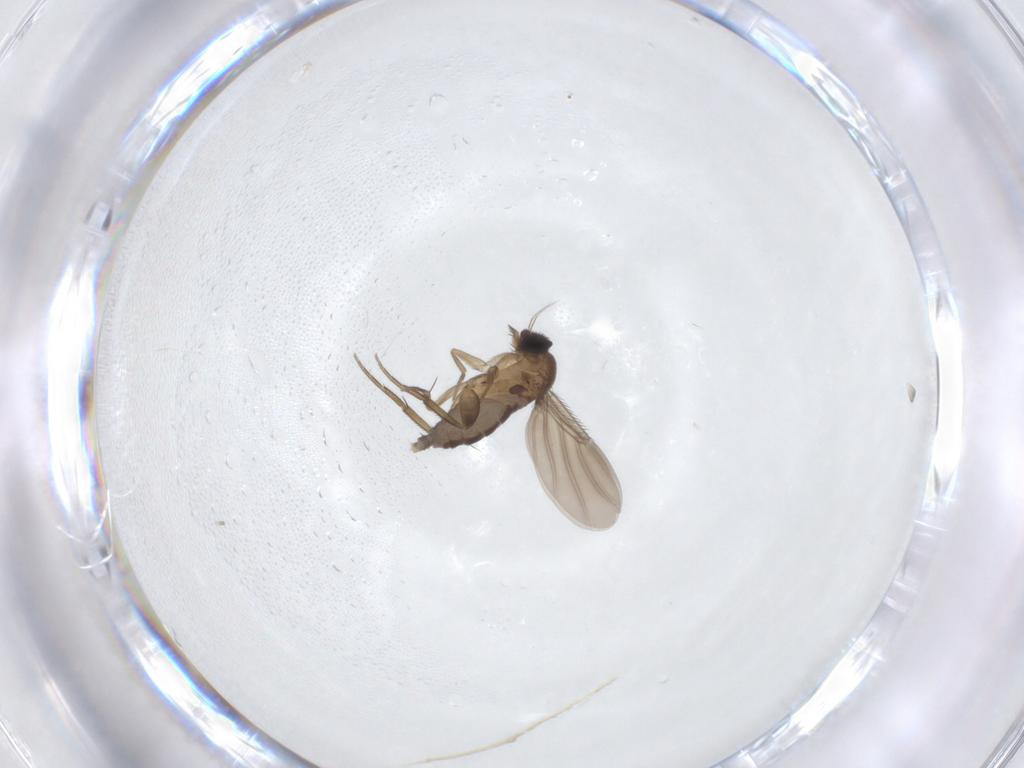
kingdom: Animalia
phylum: Arthropoda
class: Insecta
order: Diptera
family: Phoridae
